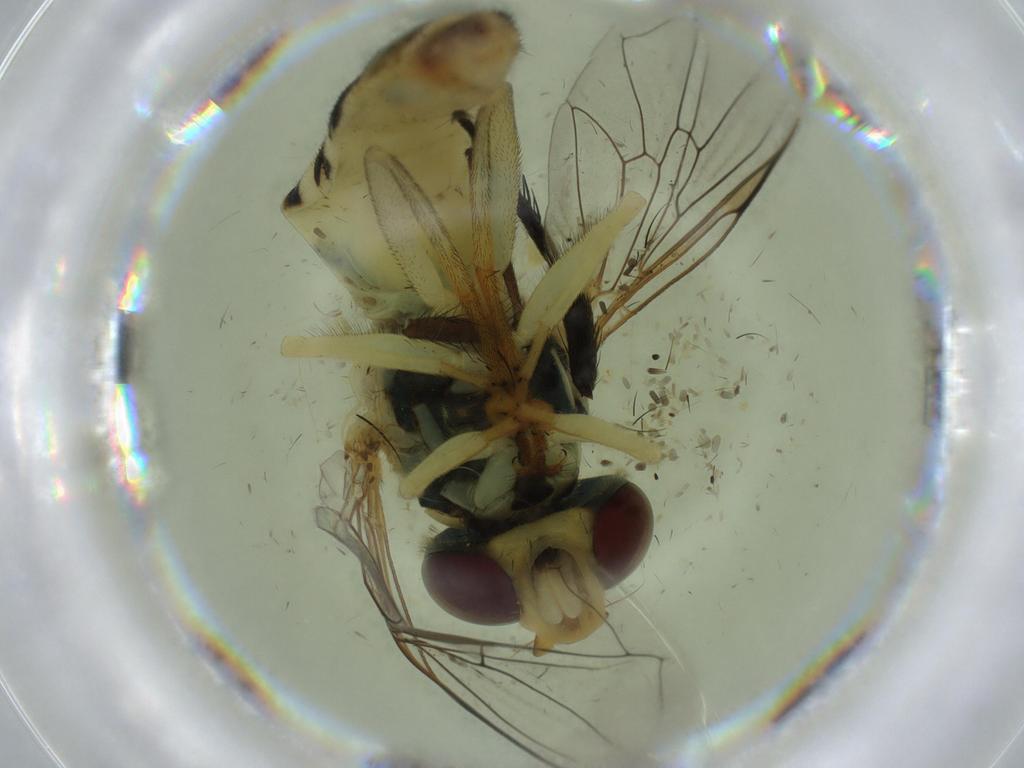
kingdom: Animalia
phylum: Arthropoda
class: Insecta
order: Diptera
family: Syrphidae
